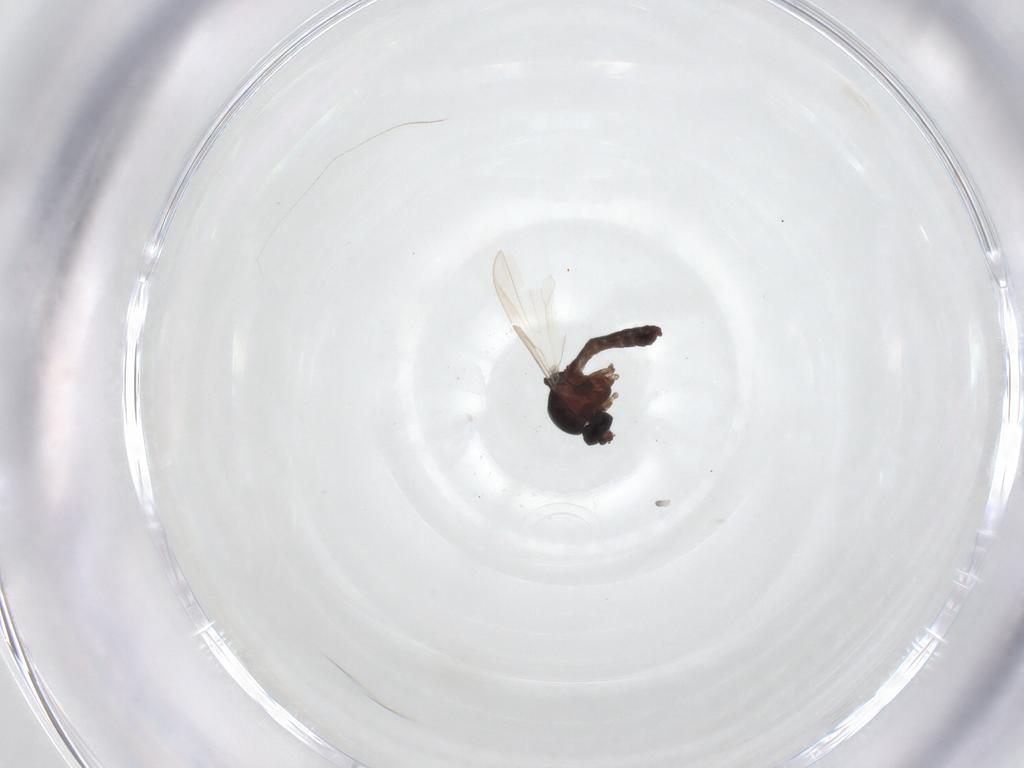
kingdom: Animalia
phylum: Arthropoda
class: Insecta
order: Diptera
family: Ceratopogonidae
